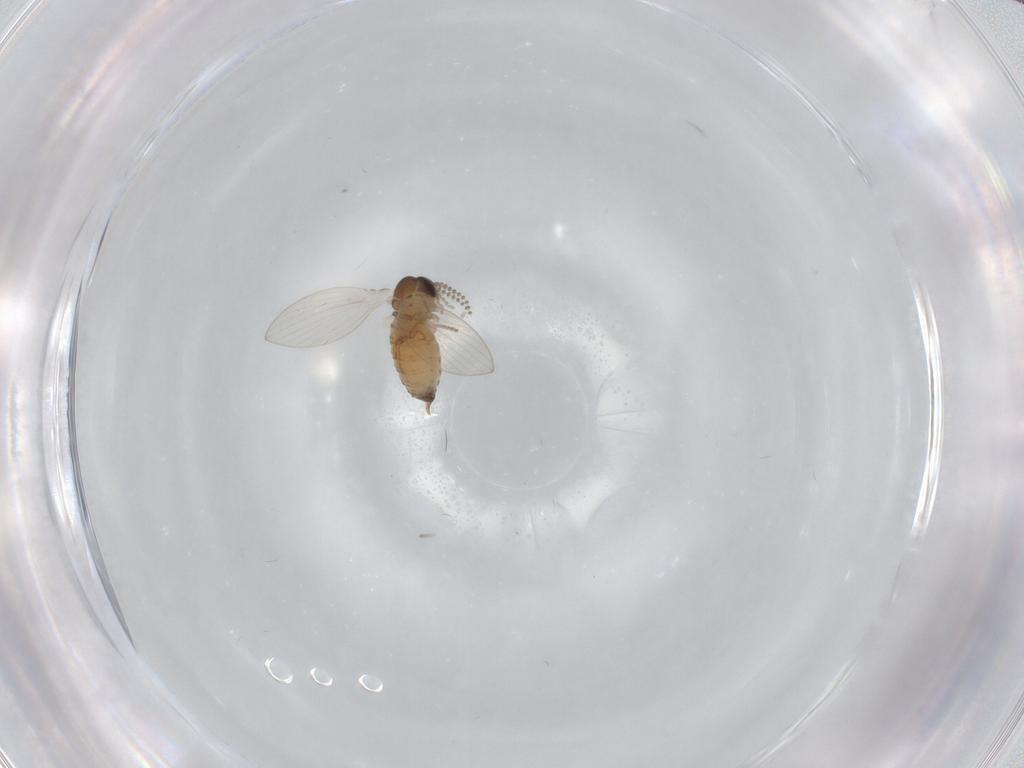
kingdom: Animalia
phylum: Arthropoda
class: Insecta
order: Diptera
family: Psychodidae
